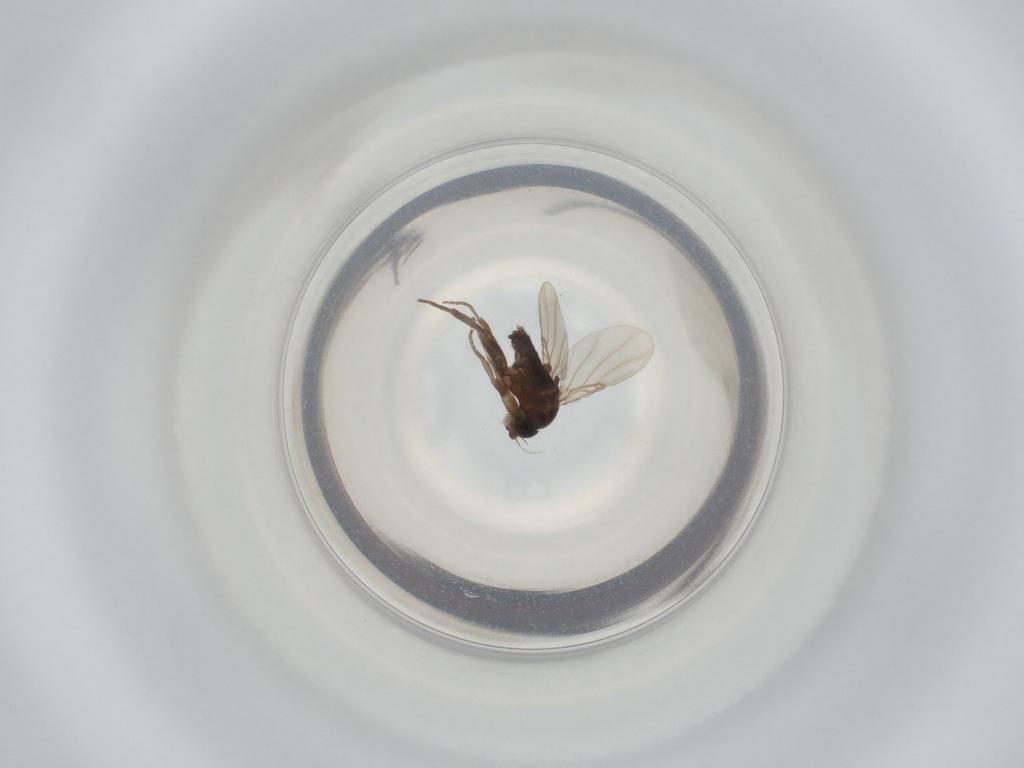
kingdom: Animalia
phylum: Arthropoda
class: Insecta
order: Diptera
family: Phoridae
